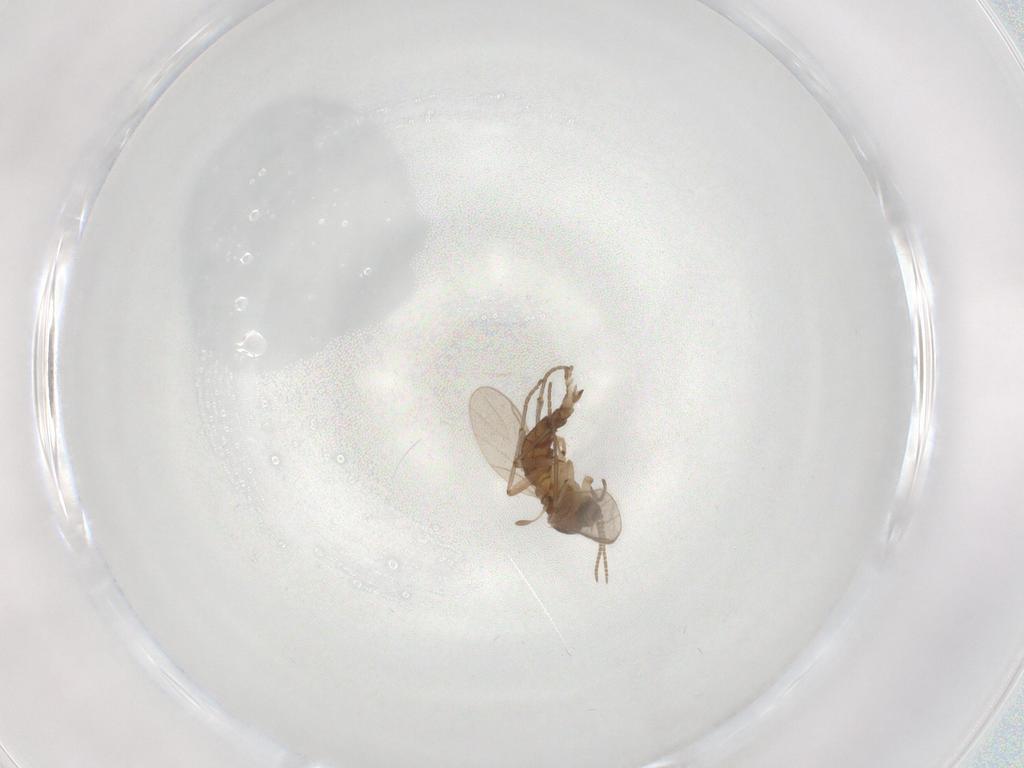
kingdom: Animalia
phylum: Arthropoda
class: Insecta
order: Diptera
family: Sciaridae
